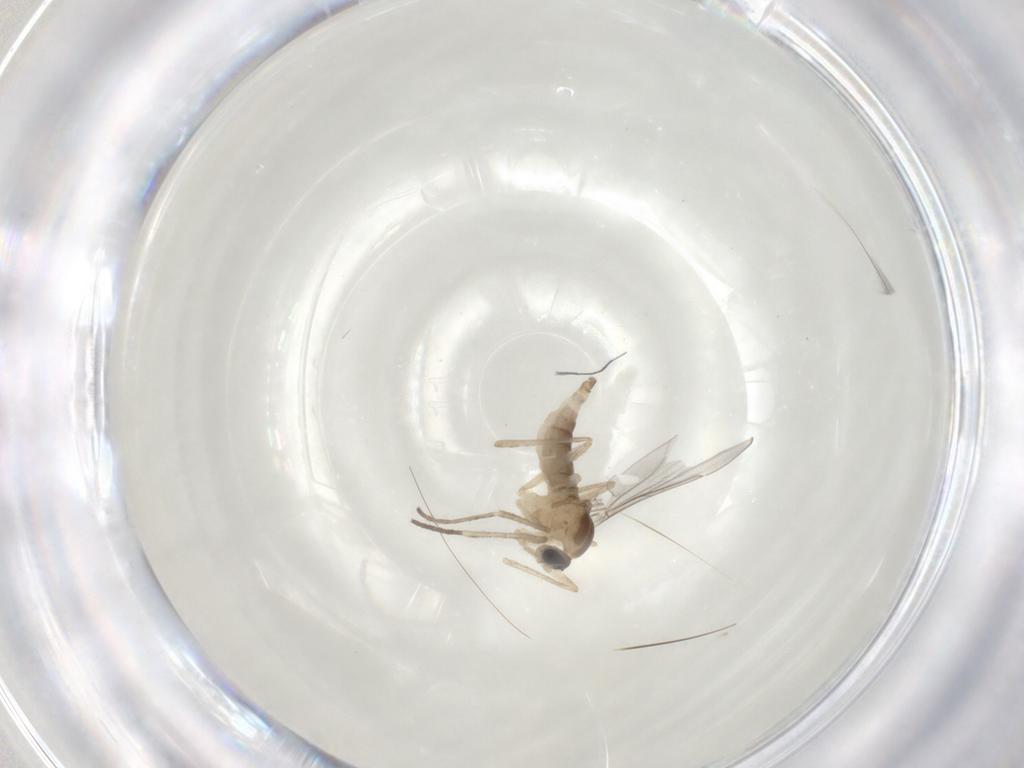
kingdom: Animalia
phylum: Arthropoda
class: Insecta
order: Diptera
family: Cecidomyiidae
